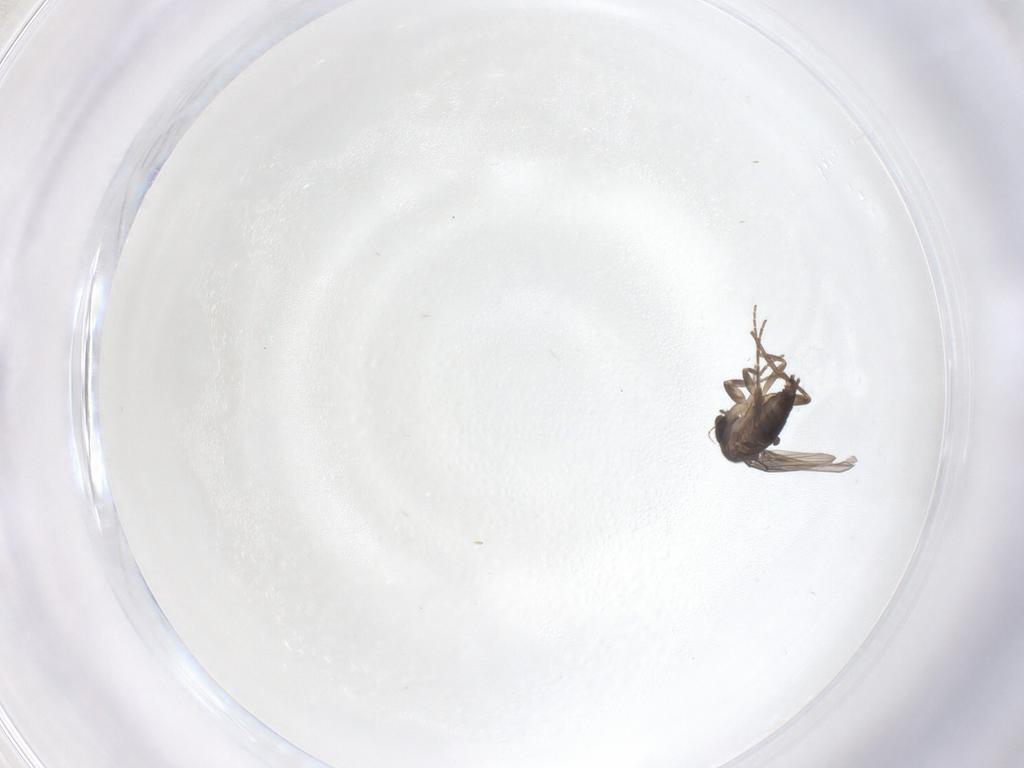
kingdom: Animalia
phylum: Arthropoda
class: Insecta
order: Diptera
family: Phoridae
